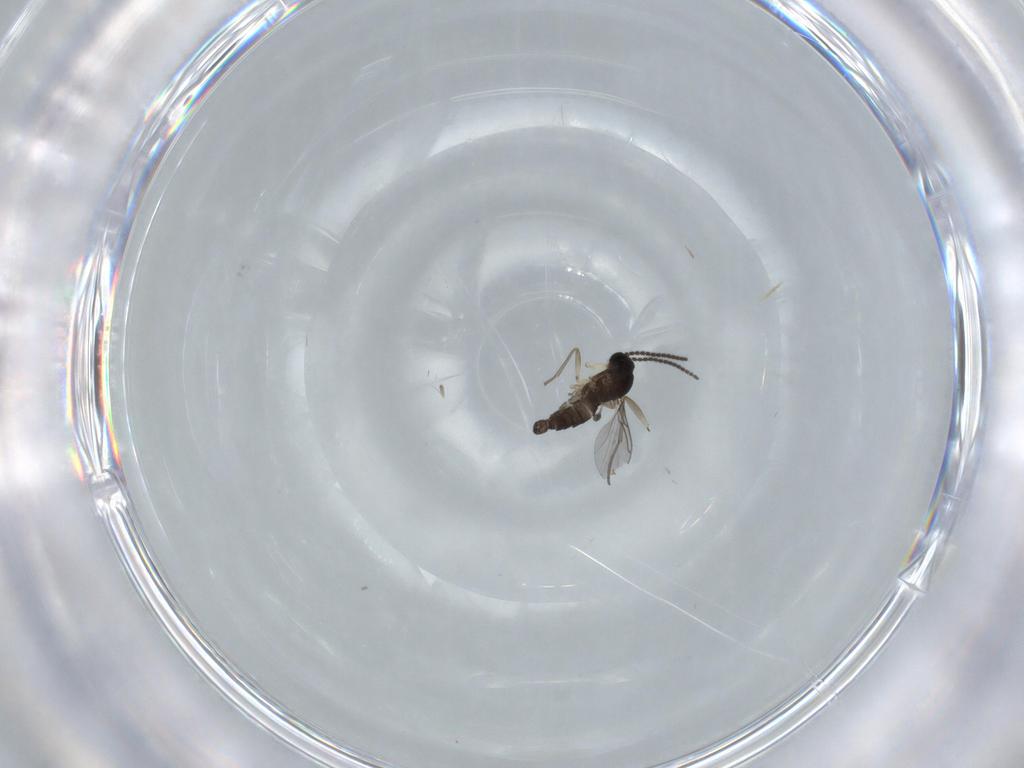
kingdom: Animalia
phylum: Arthropoda
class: Insecta
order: Diptera
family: Sciaridae
